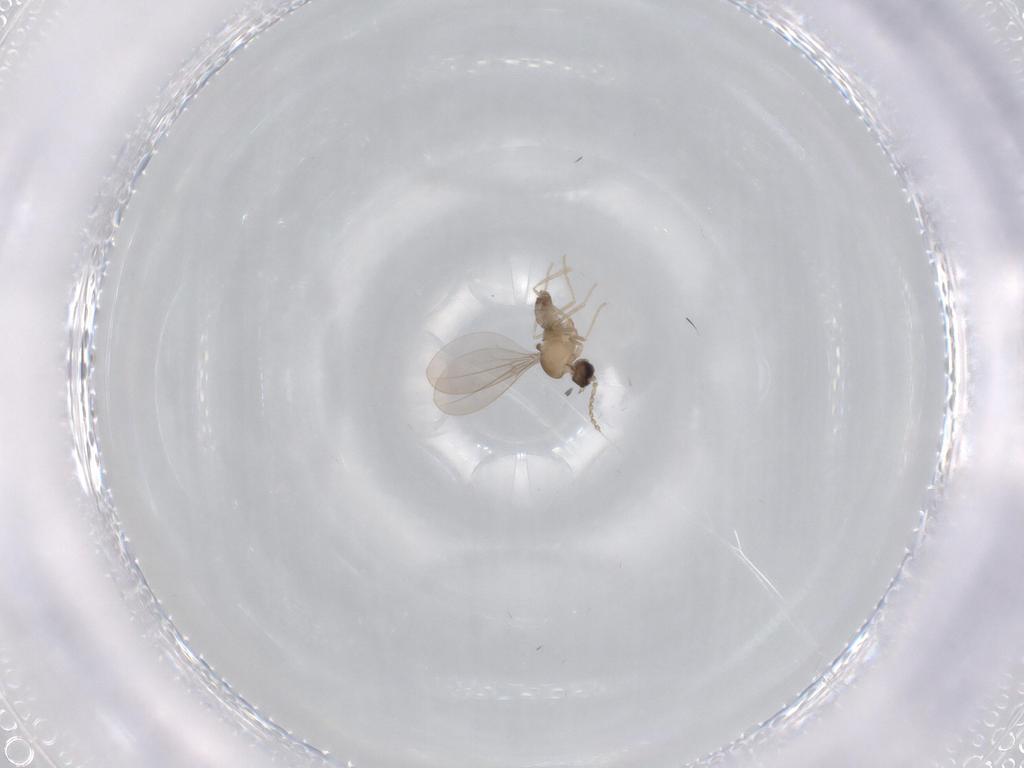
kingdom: Animalia
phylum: Arthropoda
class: Insecta
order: Diptera
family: Cecidomyiidae
